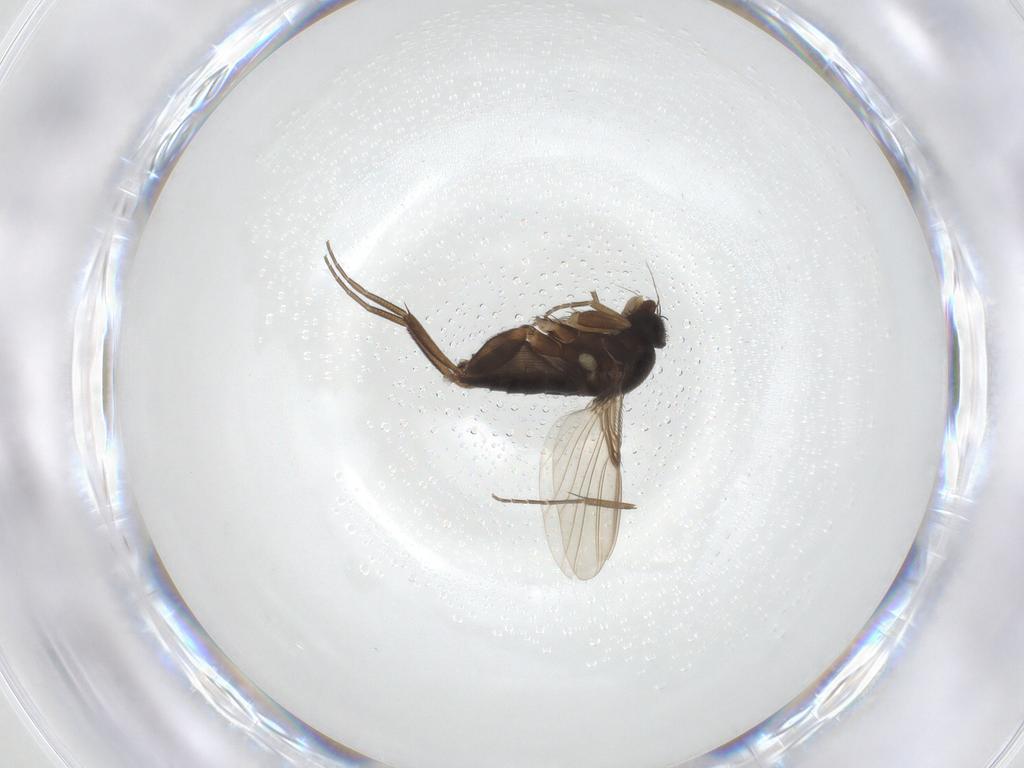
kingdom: Animalia
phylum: Arthropoda
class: Insecta
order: Diptera
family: Phoridae
